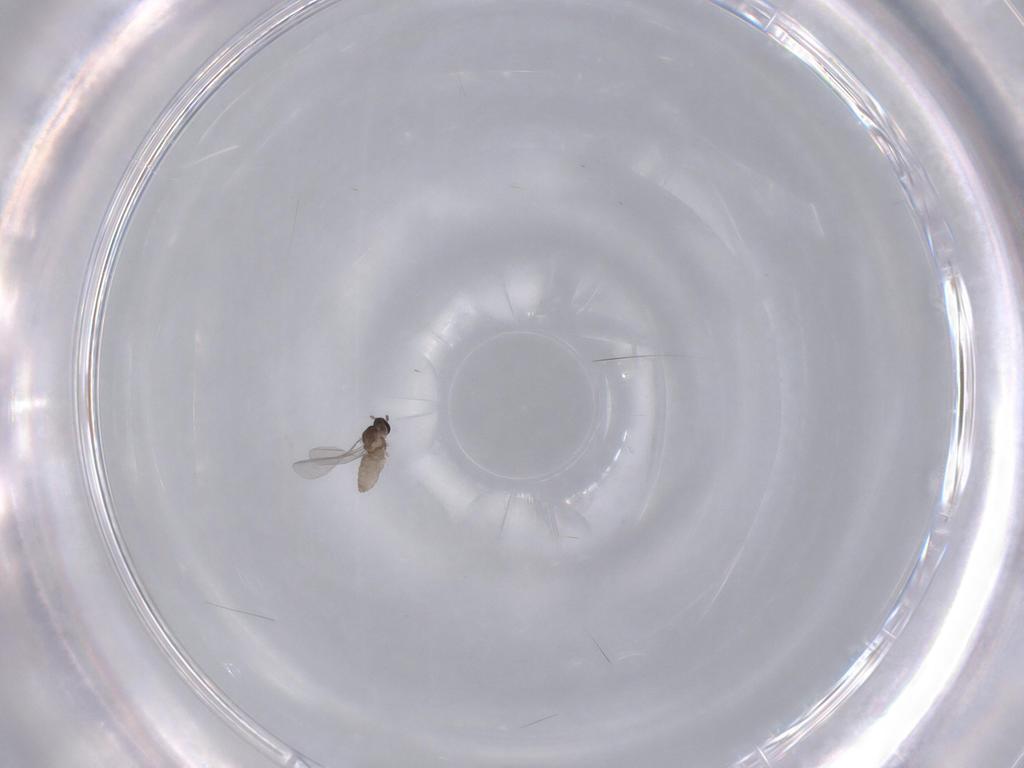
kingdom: Animalia
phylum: Arthropoda
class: Insecta
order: Diptera
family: Cecidomyiidae
